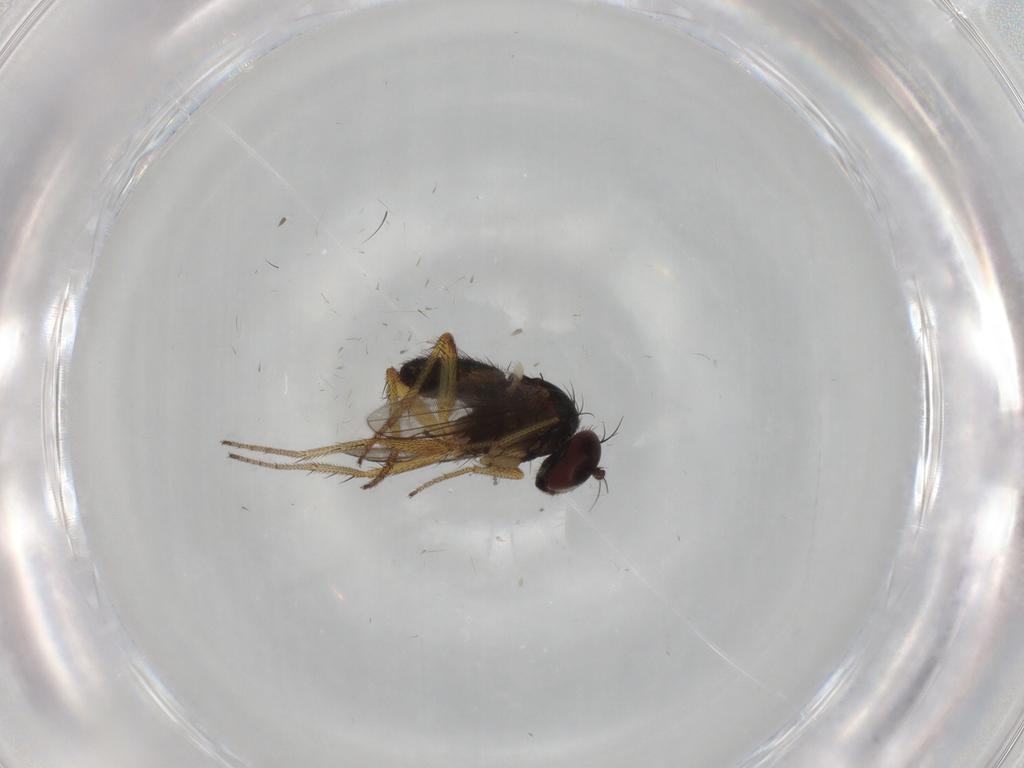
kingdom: Animalia
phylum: Arthropoda
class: Insecta
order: Diptera
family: Dolichopodidae
